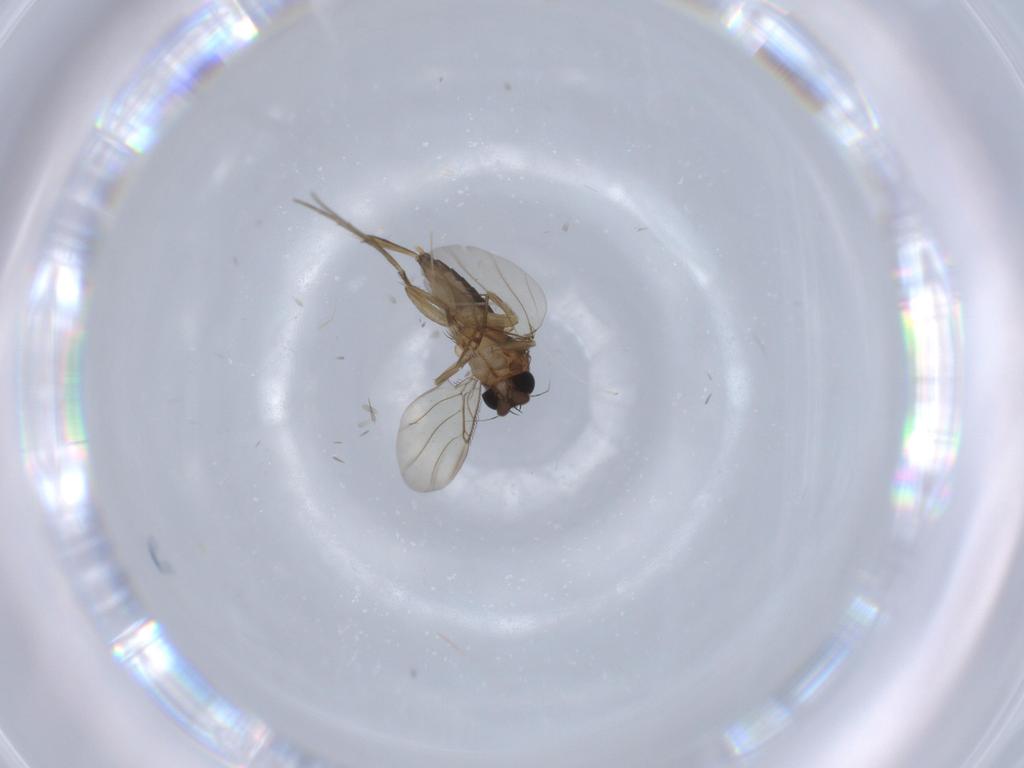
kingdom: Animalia
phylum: Arthropoda
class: Insecta
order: Diptera
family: Phoridae
